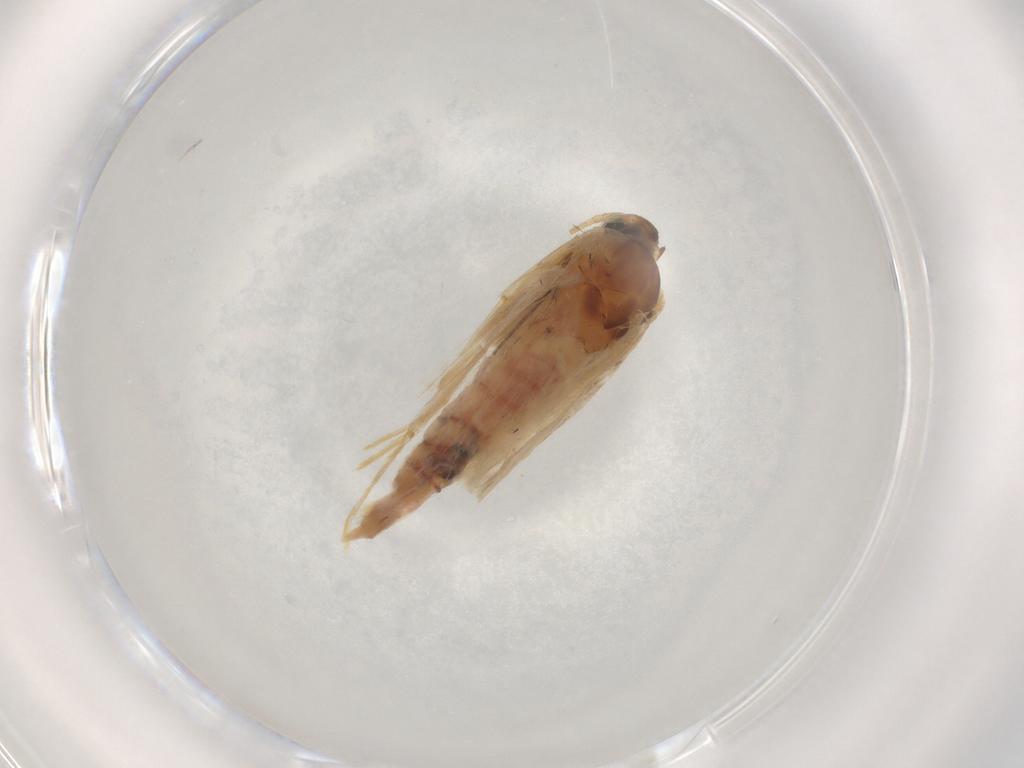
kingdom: Animalia
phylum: Arthropoda
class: Insecta
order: Lepidoptera
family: Crambidae
